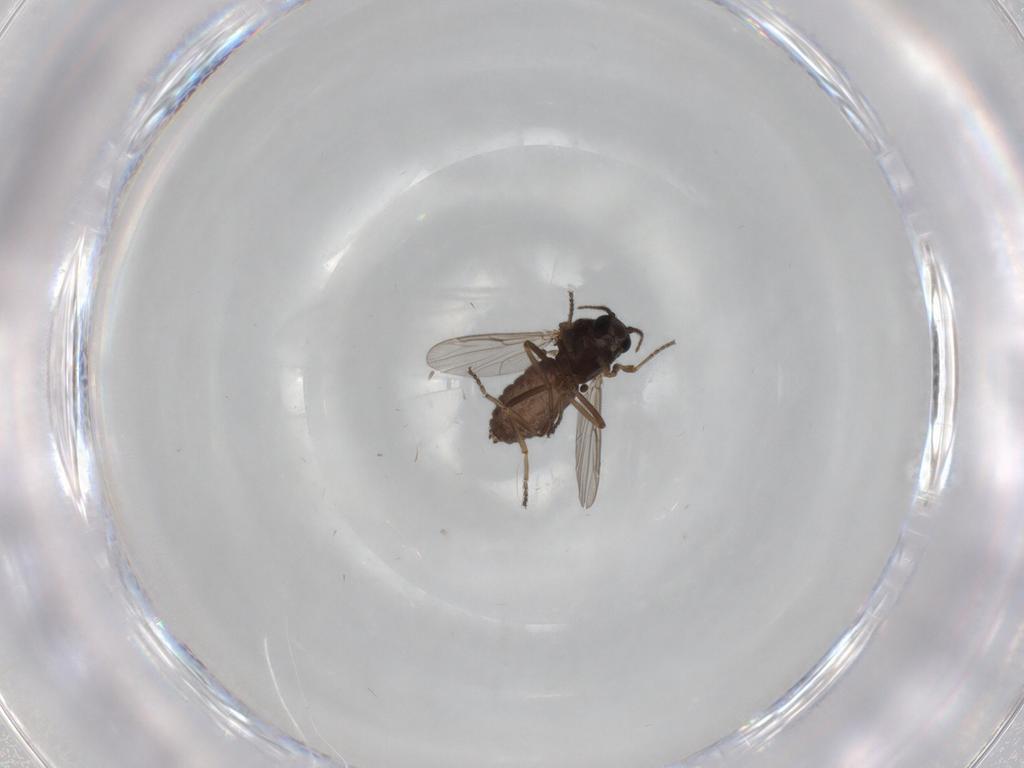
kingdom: Animalia
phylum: Arthropoda
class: Insecta
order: Diptera
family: Ceratopogonidae
